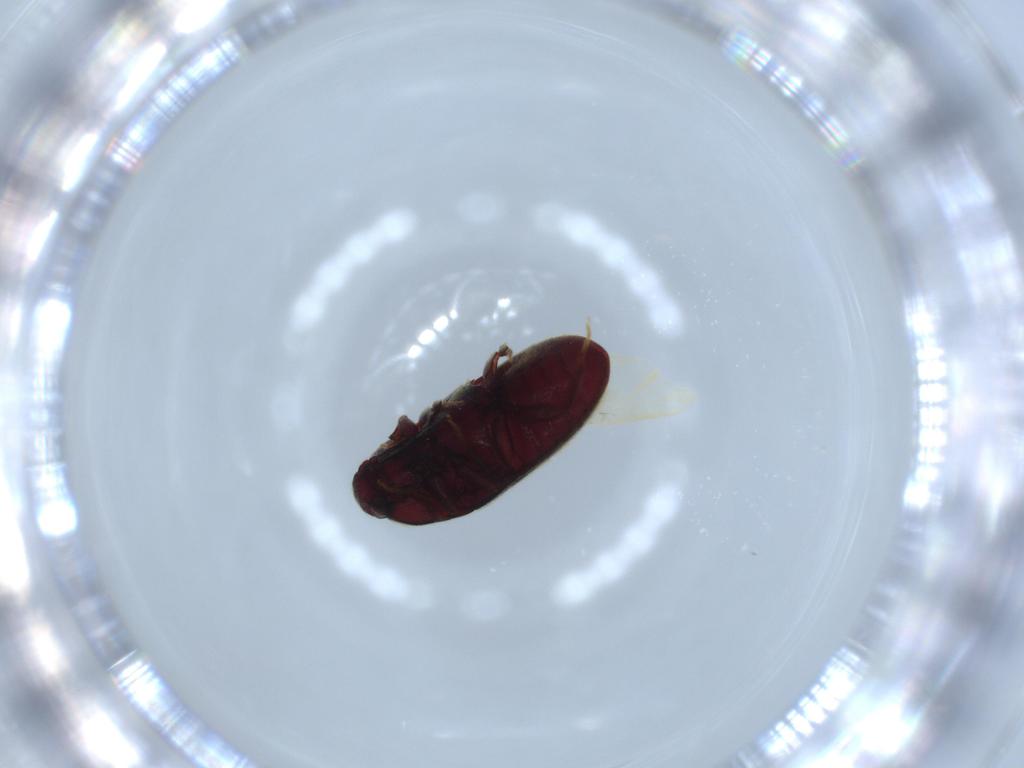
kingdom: Animalia
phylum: Arthropoda
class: Insecta
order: Coleoptera
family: Throscidae
